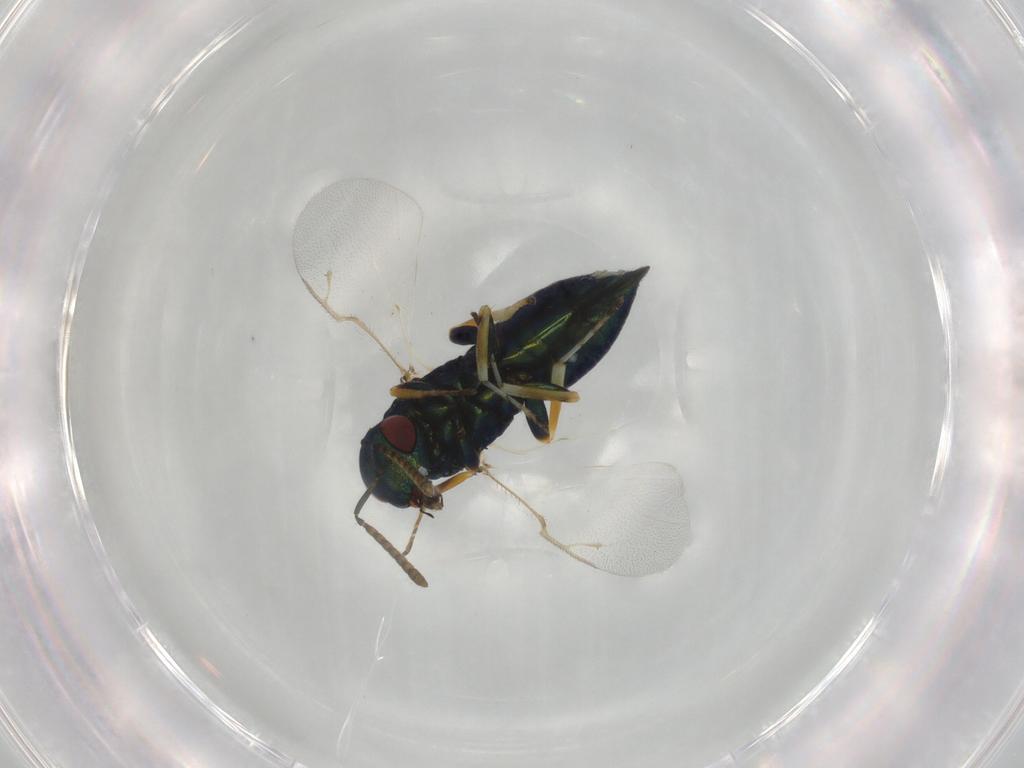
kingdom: Animalia
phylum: Arthropoda
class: Insecta
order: Hymenoptera
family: Pteromalidae
